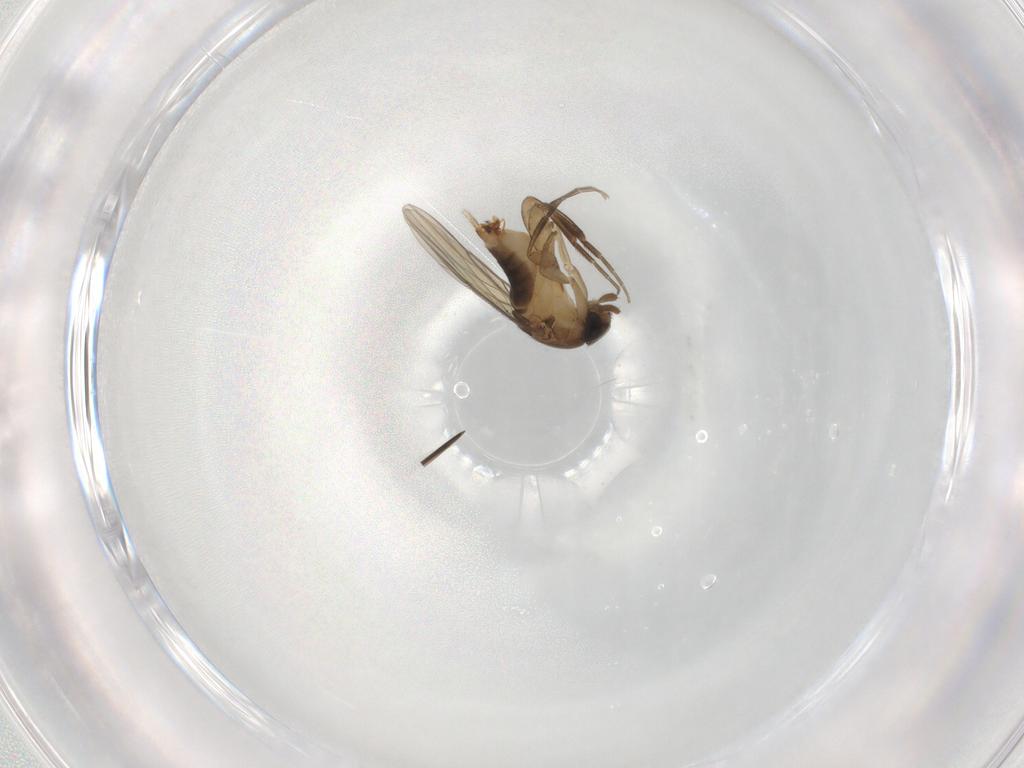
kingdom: Animalia
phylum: Arthropoda
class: Insecta
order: Diptera
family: Phoridae
